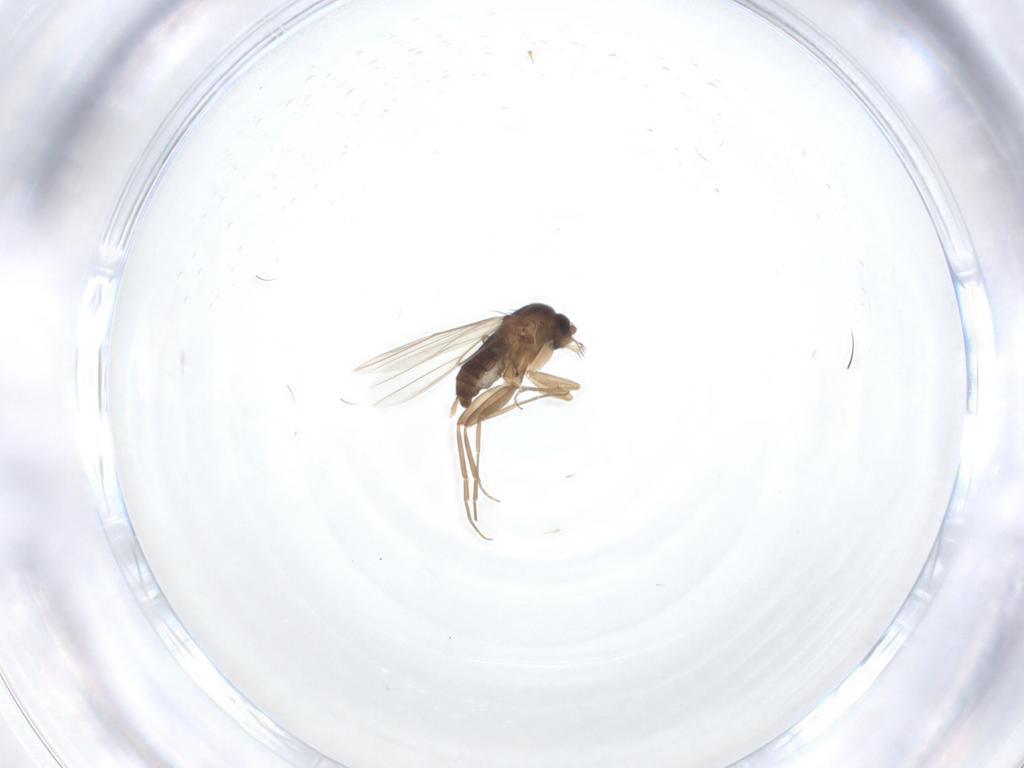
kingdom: Animalia
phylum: Arthropoda
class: Insecta
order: Diptera
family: Phoridae
